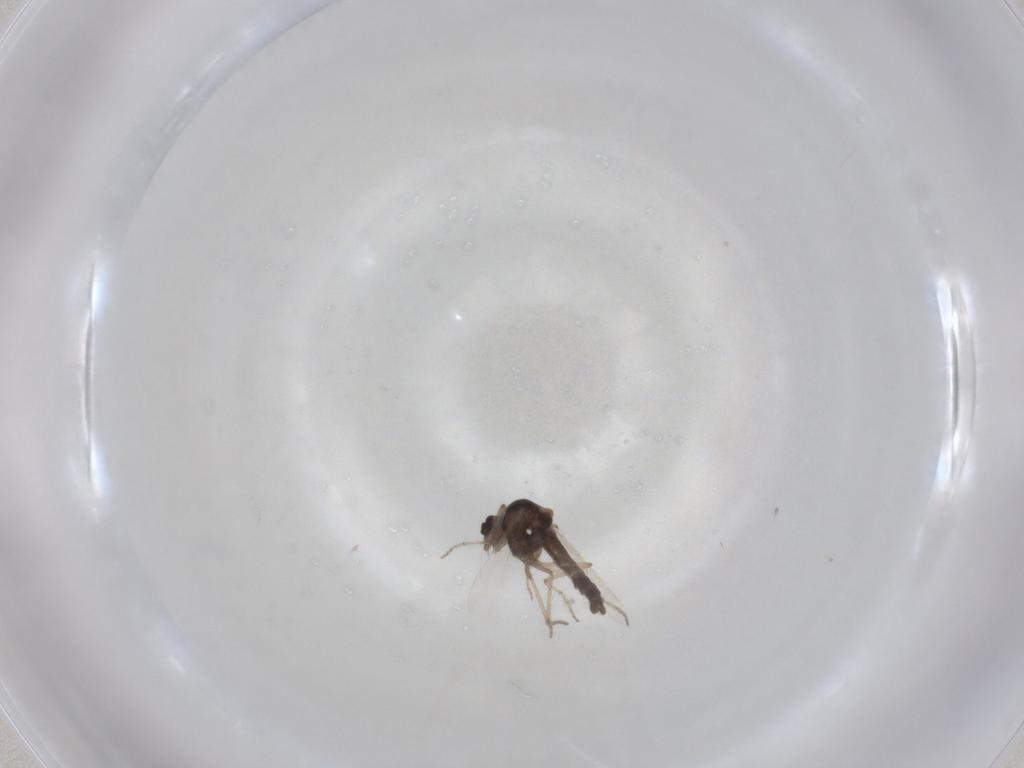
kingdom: Animalia
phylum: Arthropoda
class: Insecta
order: Diptera
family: Ceratopogonidae
